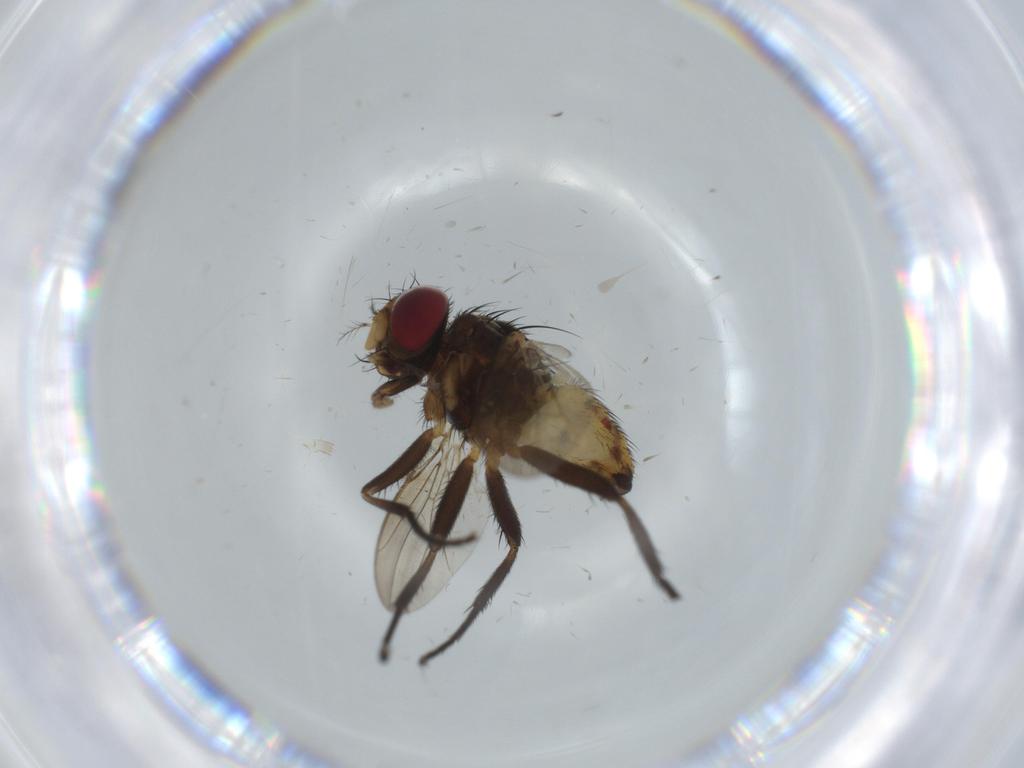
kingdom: Animalia
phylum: Arthropoda
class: Insecta
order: Diptera
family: Anthomyiidae
